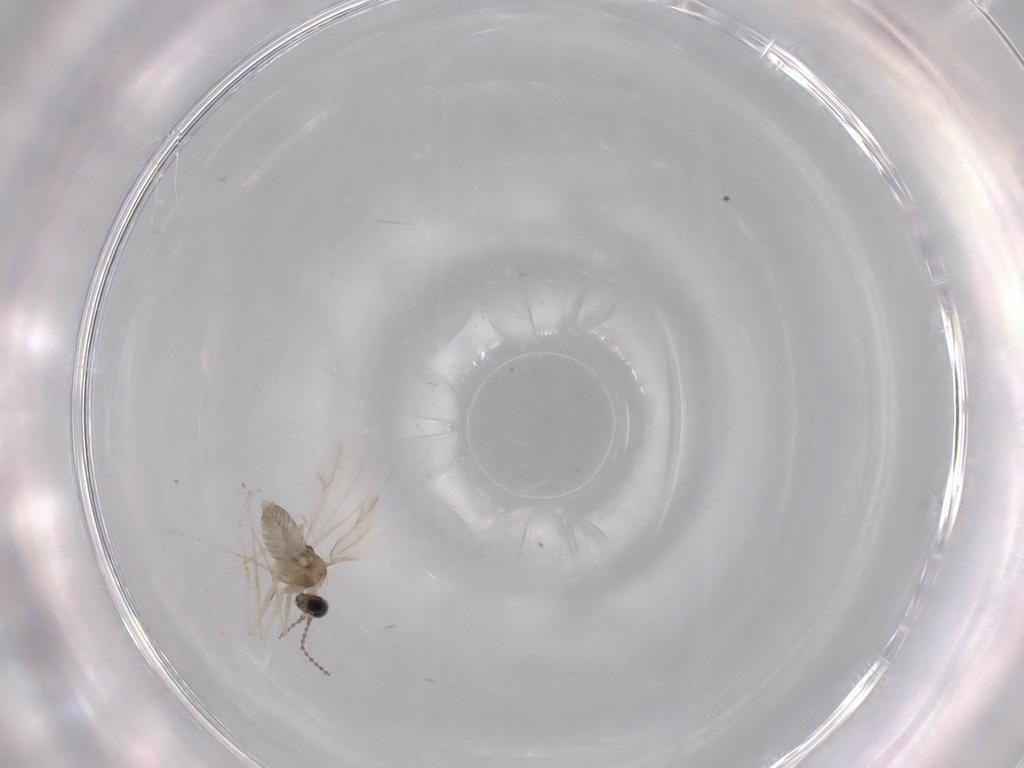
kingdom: Animalia
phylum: Arthropoda
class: Insecta
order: Diptera
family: Cecidomyiidae
